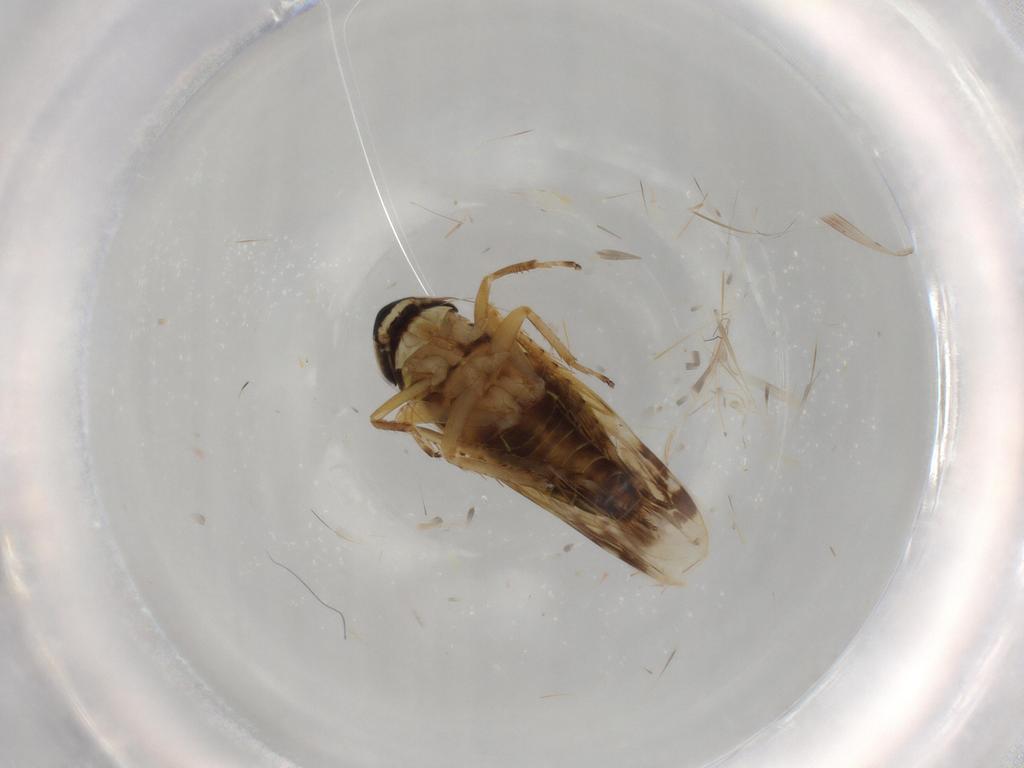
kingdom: Animalia
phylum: Arthropoda
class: Insecta
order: Hemiptera
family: Cicadellidae
